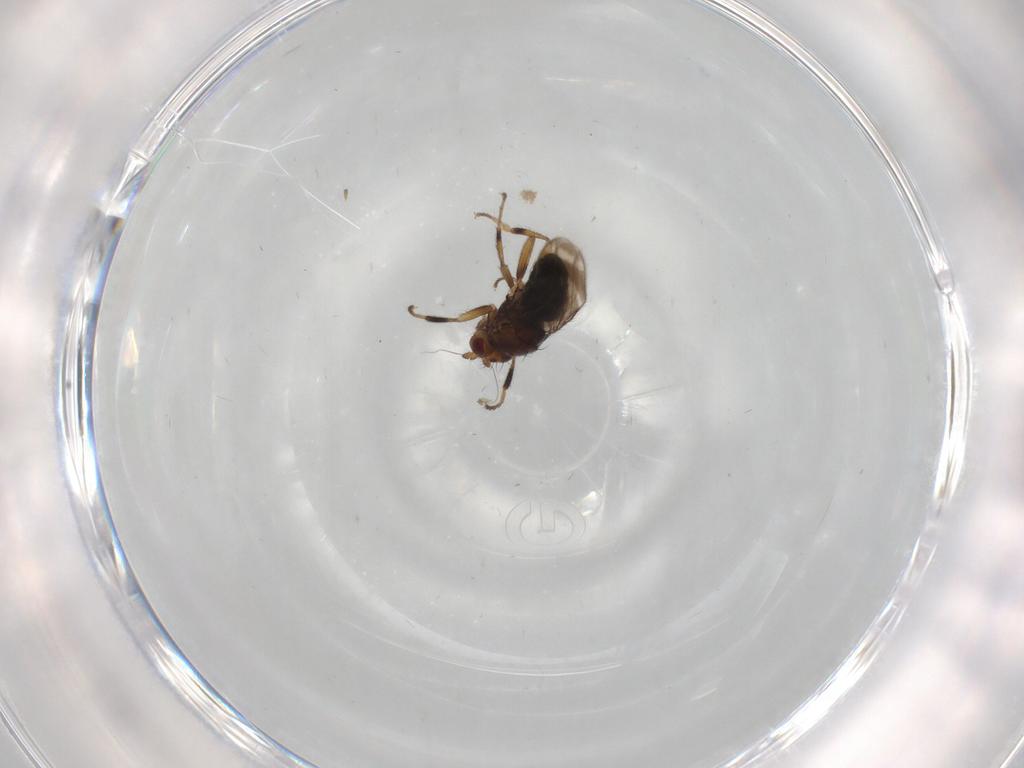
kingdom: Animalia
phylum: Arthropoda
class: Insecta
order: Diptera
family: Sphaeroceridae
